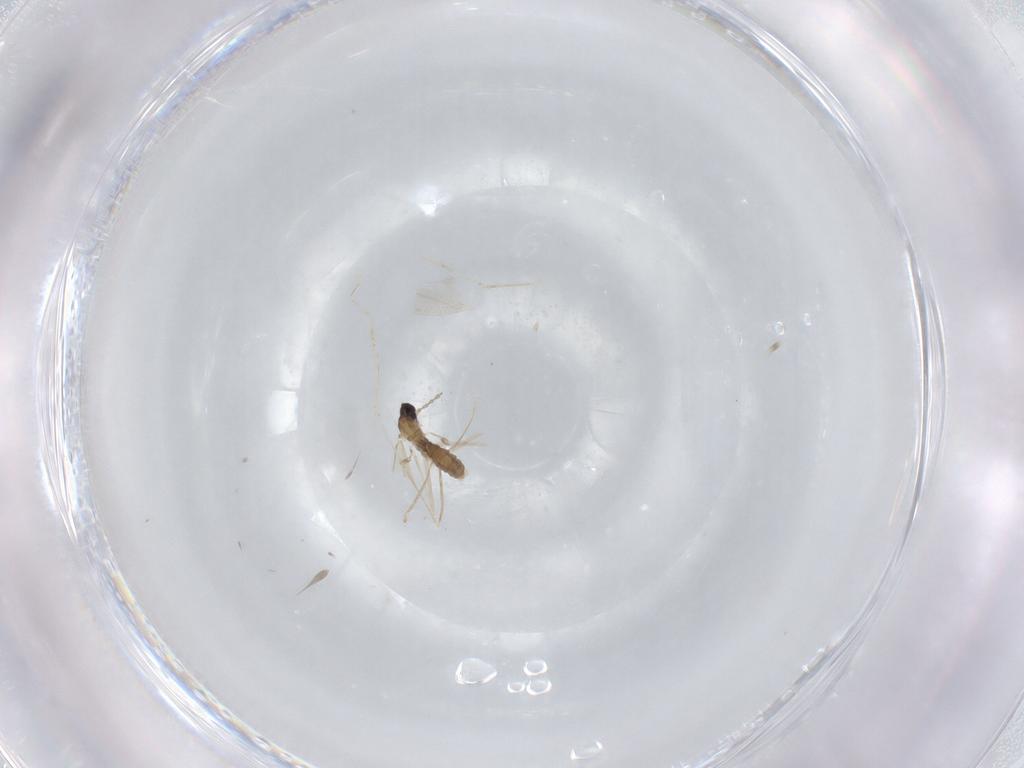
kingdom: Animalia
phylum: Arthropoda
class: Insecta
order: Diptera
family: Cecidomyiidae
